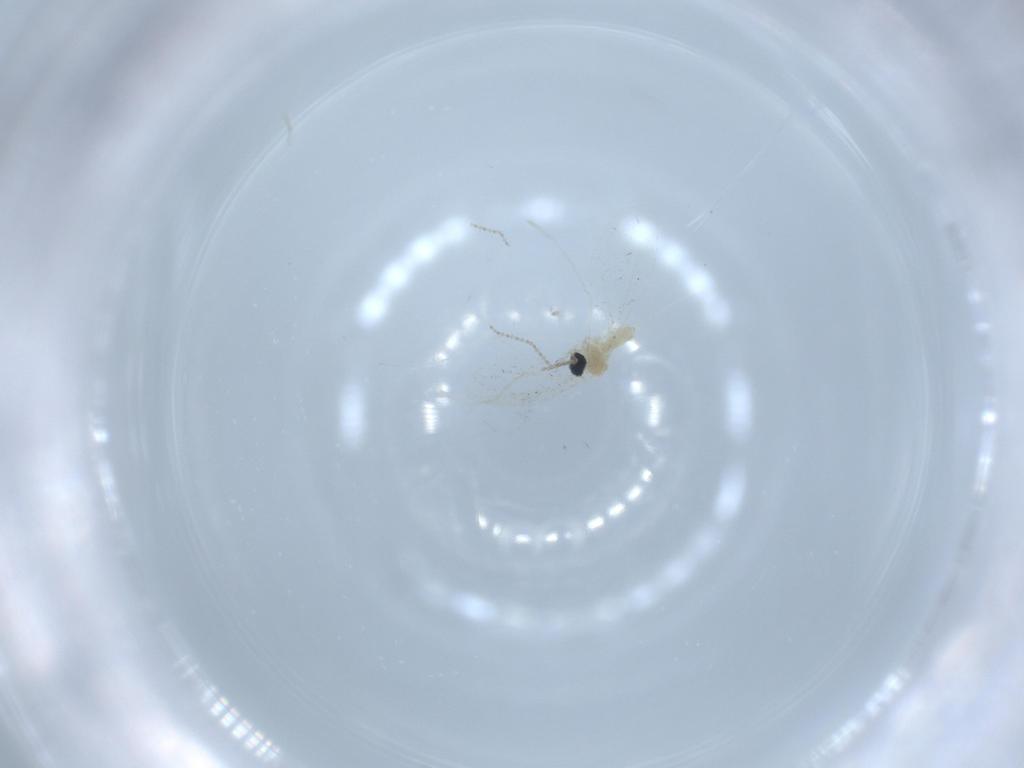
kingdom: Animalia
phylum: Arthropoda
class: Insecta
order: Diptera
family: Cecidomyiidae
